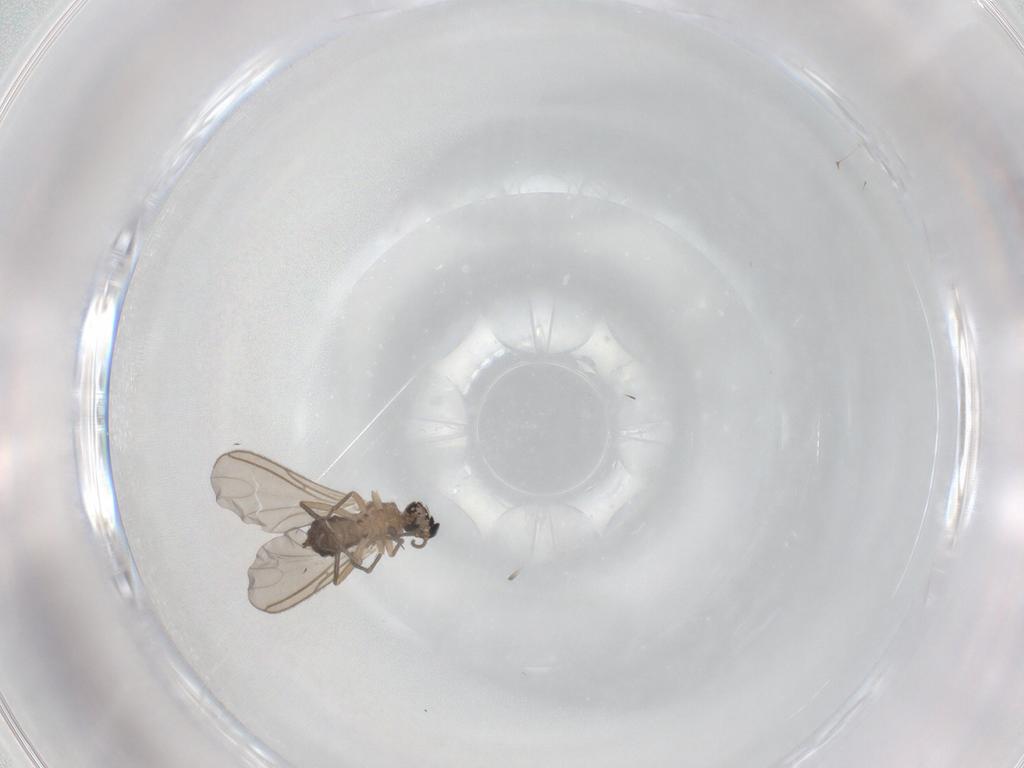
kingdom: Animalia
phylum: Arthropoda
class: Insecta
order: Diptera
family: Sciaridae
